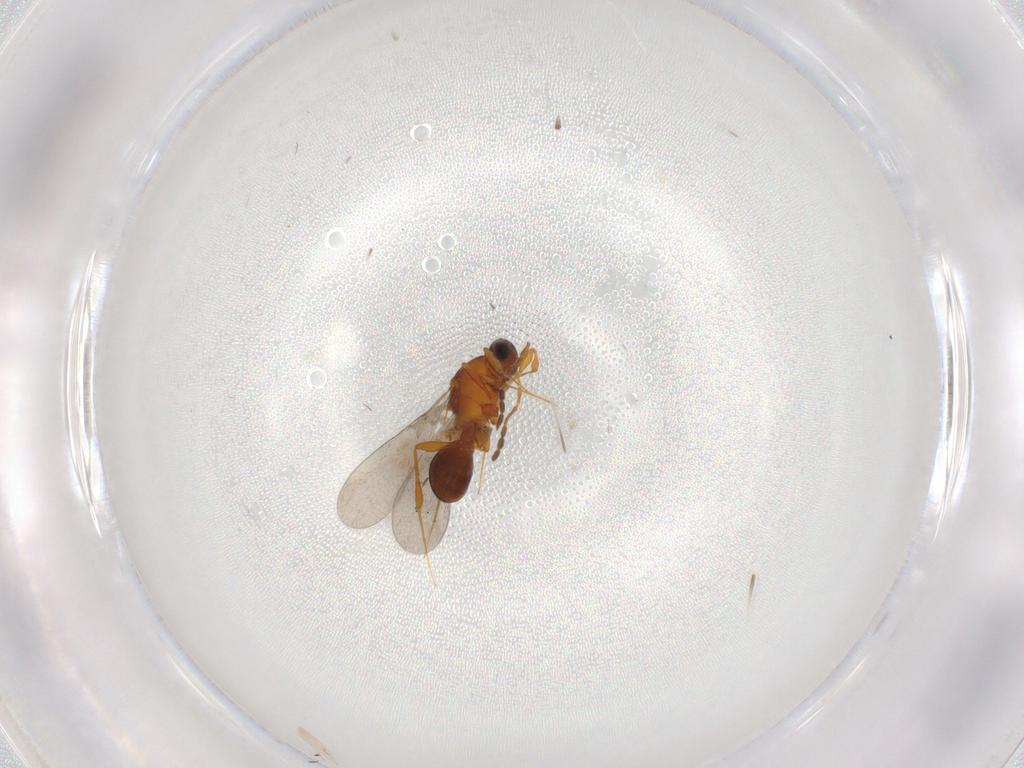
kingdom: Animalia
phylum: Arthropoda
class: Insecta
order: Hymenoptera
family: Platygastridae
